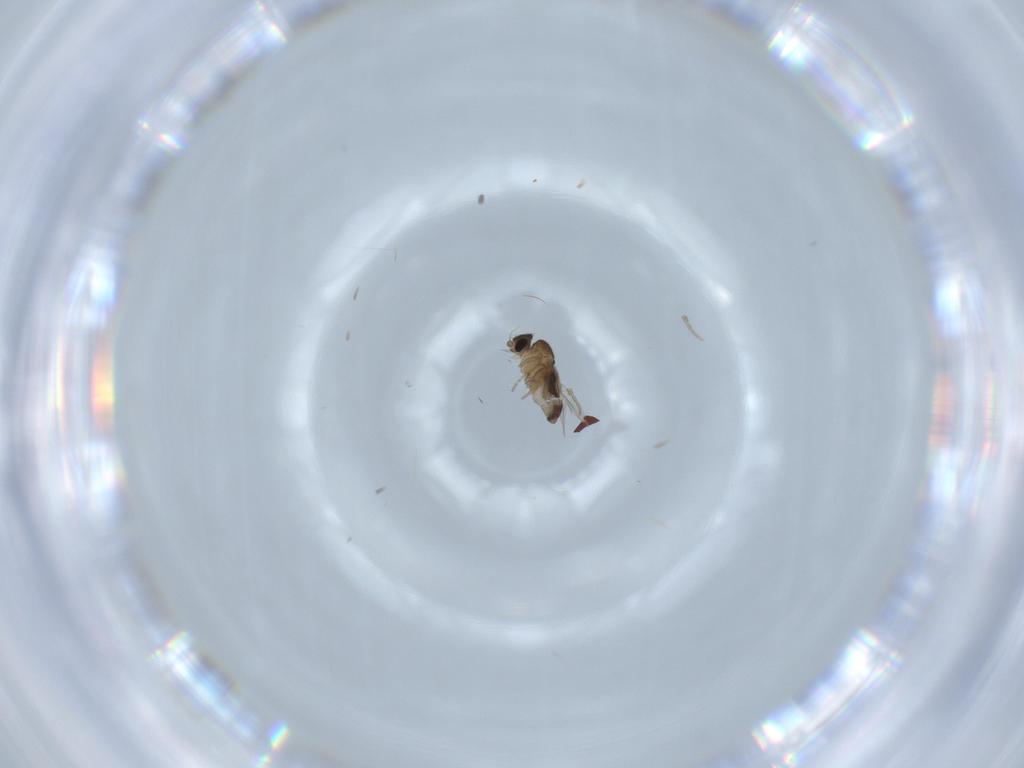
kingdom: Animalia
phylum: Arthropoda
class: Insecta
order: Diptera
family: Phoridae
